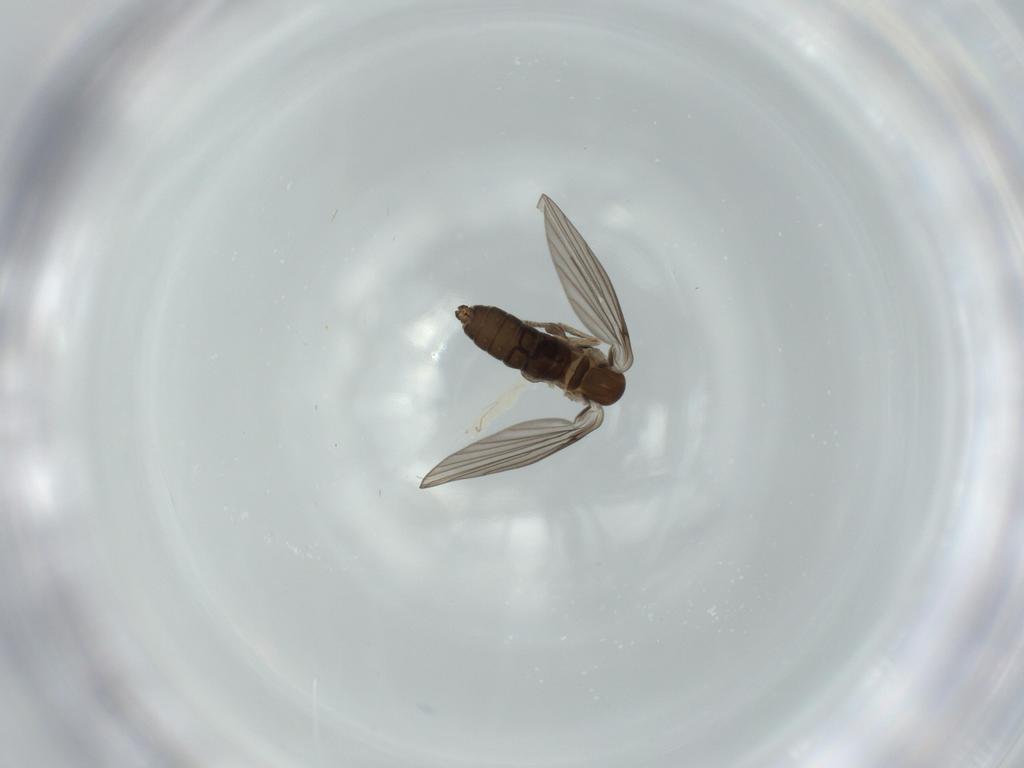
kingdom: Animalia
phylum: Arthropoda
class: Insecta
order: Diptera
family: Psychodidae
